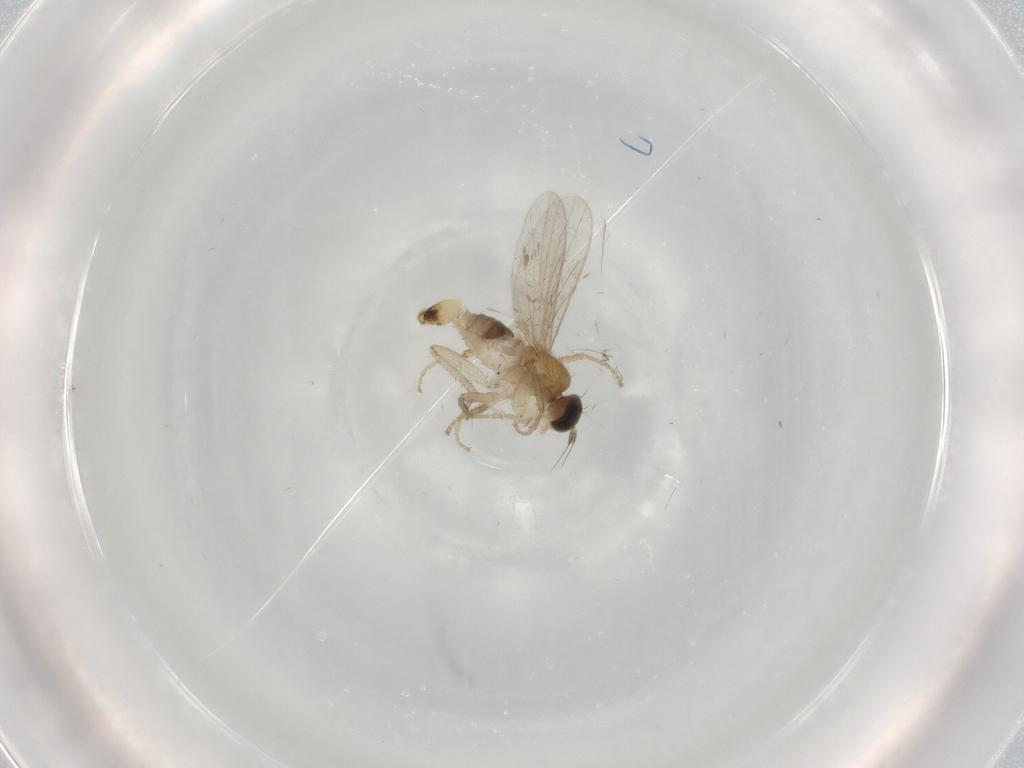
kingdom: Animalia
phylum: Arthropoda
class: Insecta
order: Diptera
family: Hybotidae
